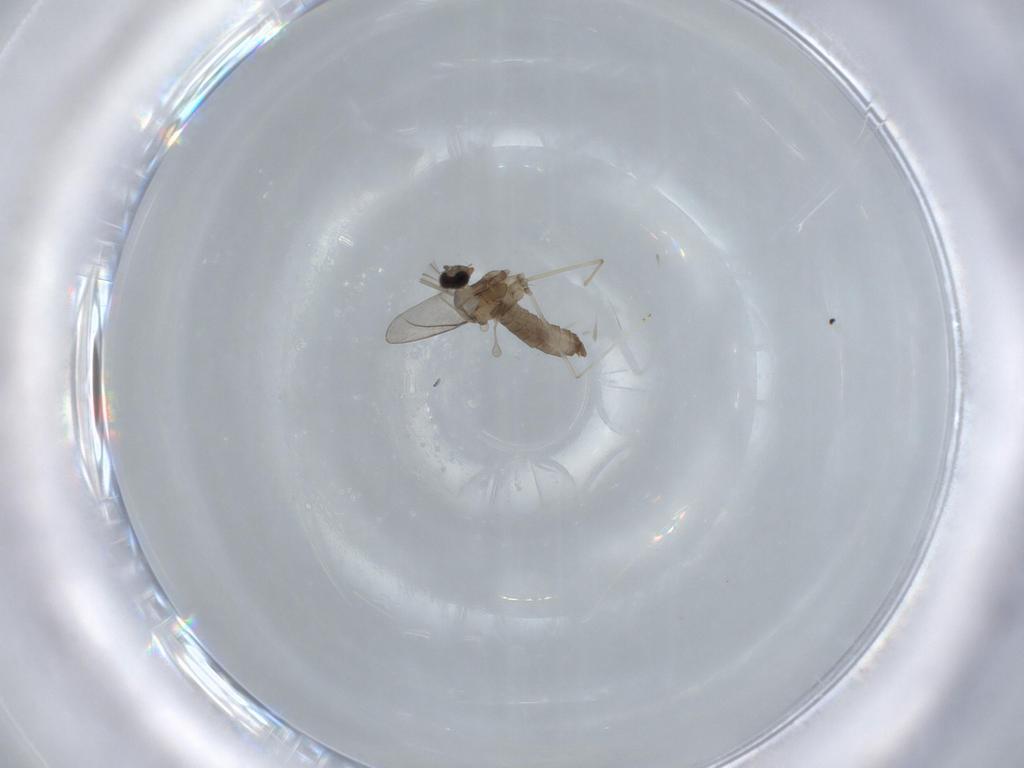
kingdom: Animalia
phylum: Arthropoda
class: Insecta
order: Diptera
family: Cecidomyiidae
